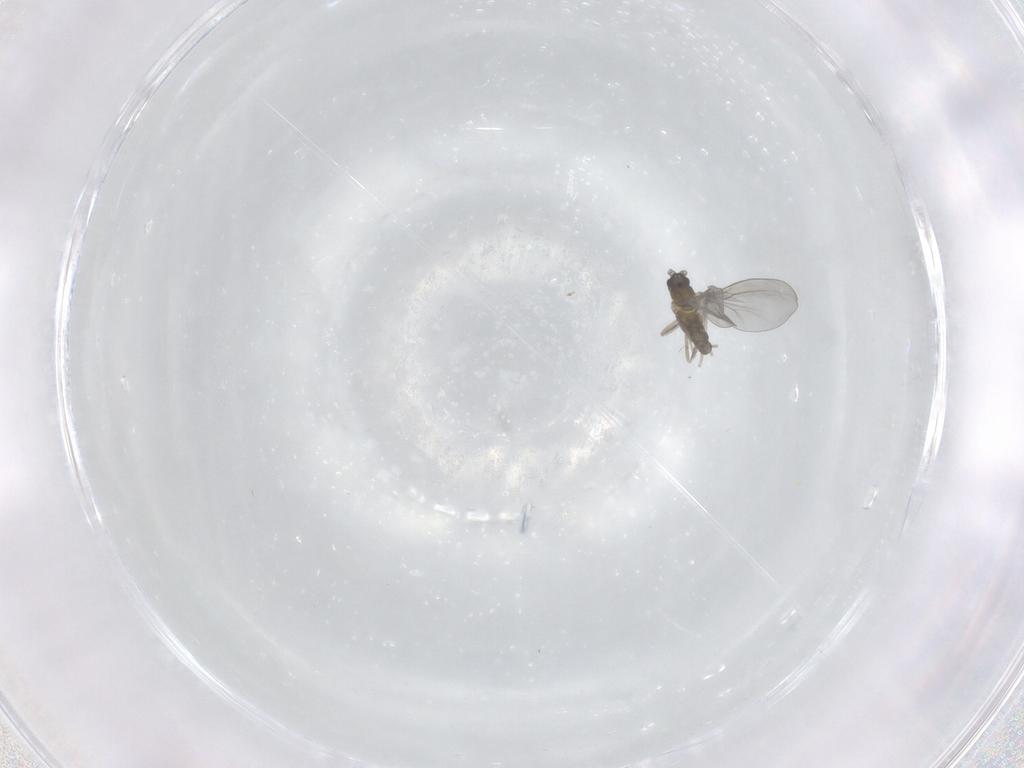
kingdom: Animalia
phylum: Arthropoda
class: Insecta
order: Diptera
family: Cecidomyiidae
